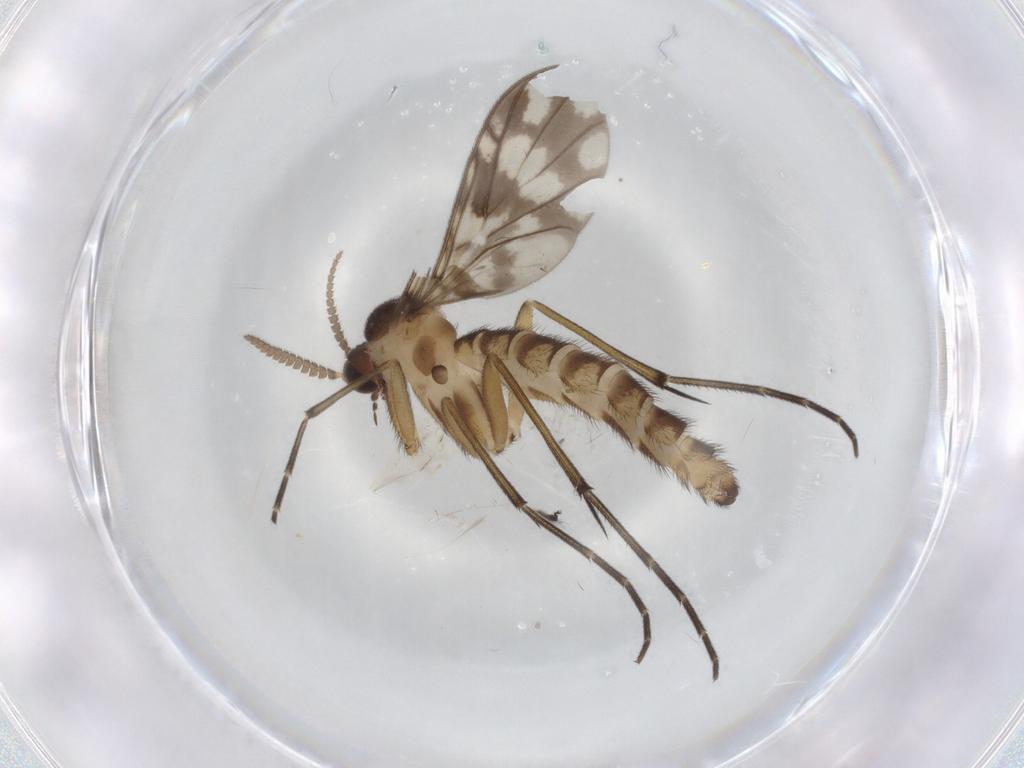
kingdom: Animalia
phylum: Arthropoda
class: Insecta
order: Diptera
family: Keroplatidae
